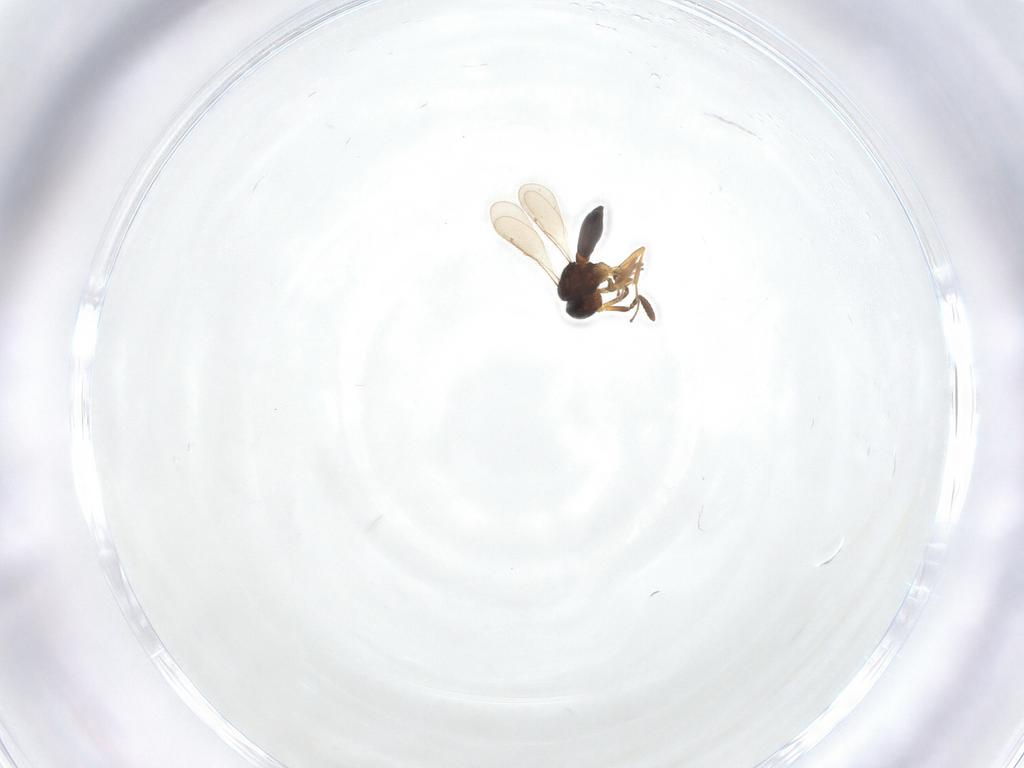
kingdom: Animalia
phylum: Arthropoda
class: Insecta
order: Hymenoptera
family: Scelionidae
